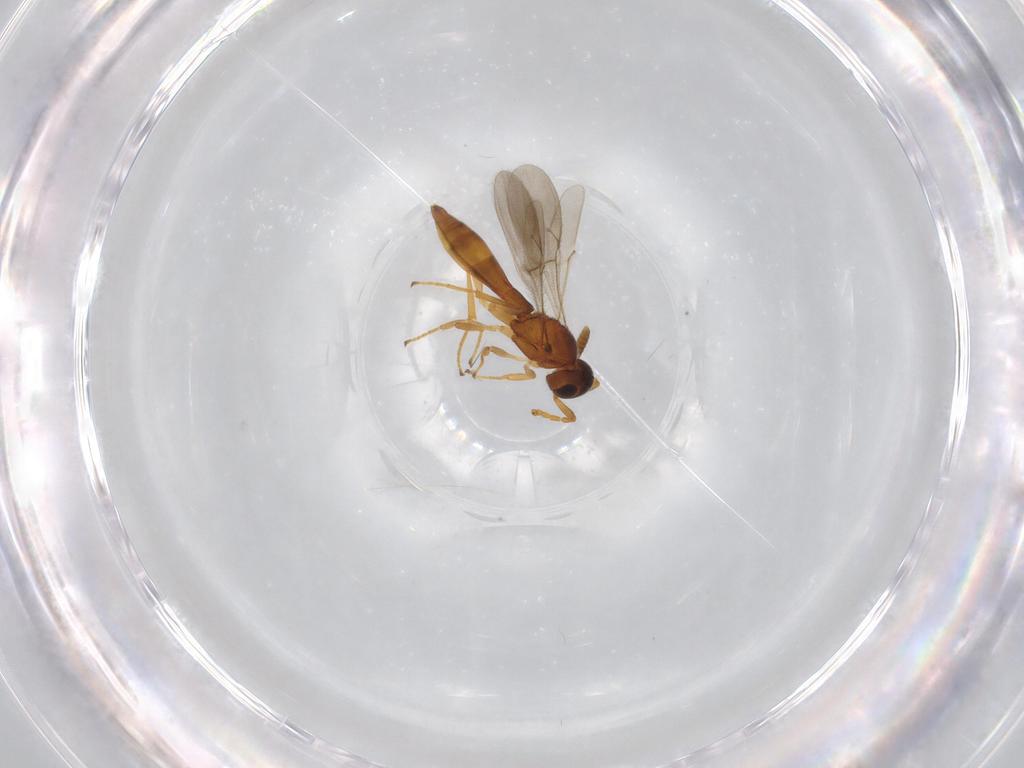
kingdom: Animalia
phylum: Arthropoda
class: Insecta
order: Hymenoptera
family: Scelionidae
